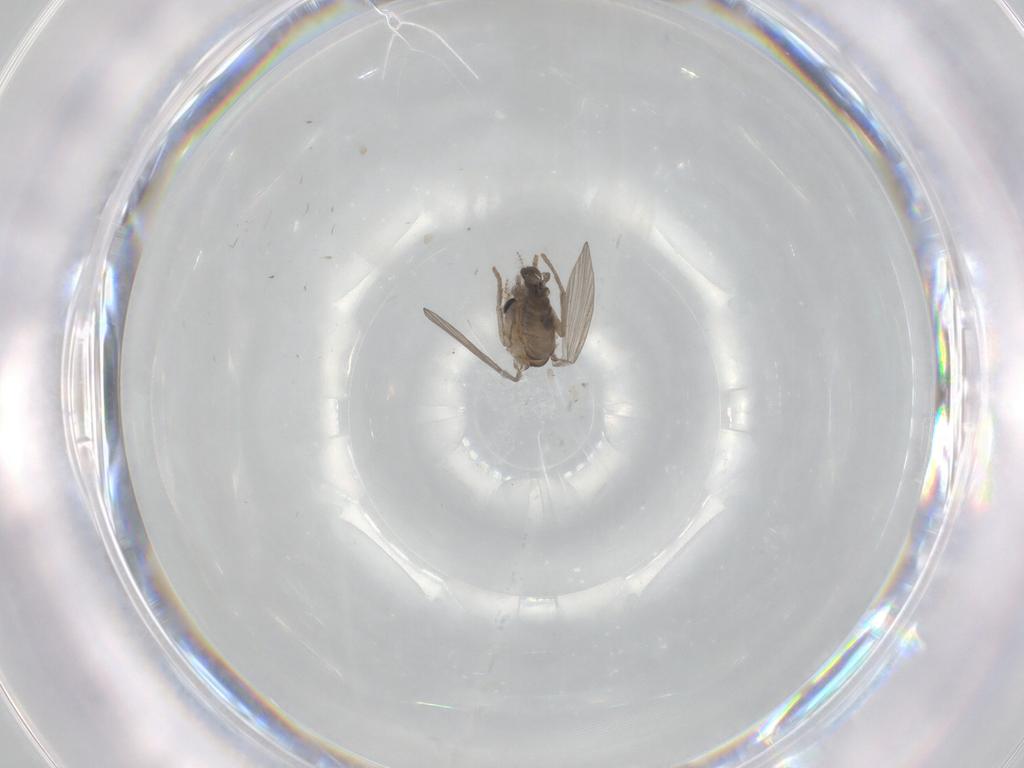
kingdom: Animalia
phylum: Arthropoda
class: Insecta
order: Diptera
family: Psychodidae
